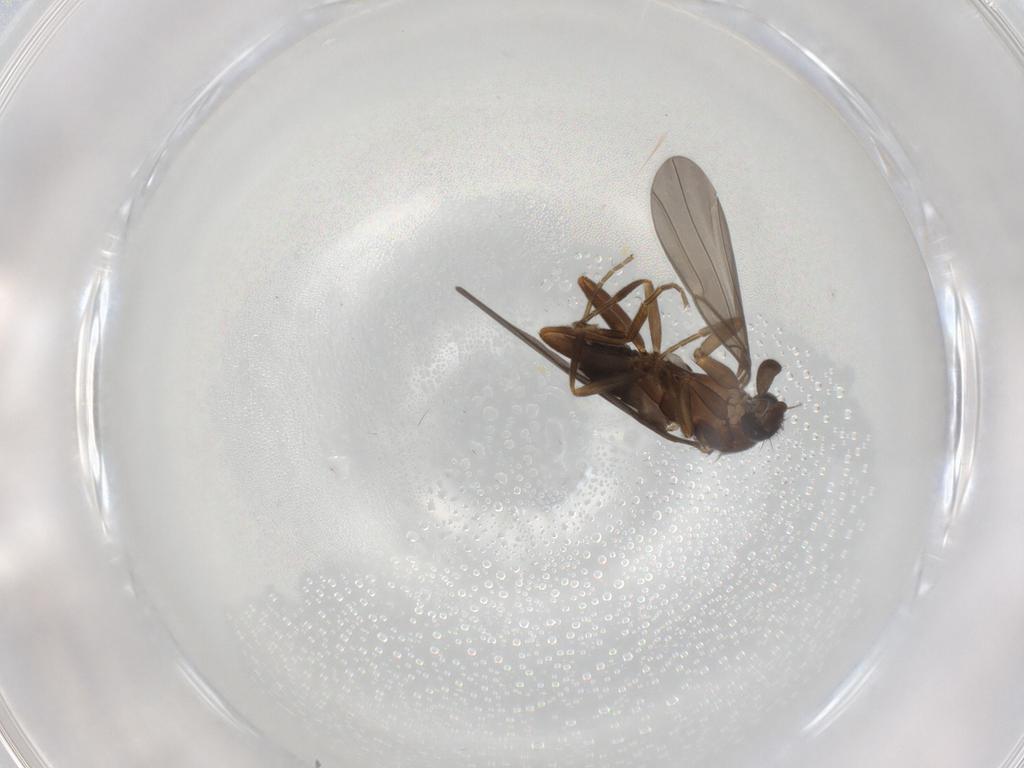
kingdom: Animalia
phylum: Arthropoda
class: Insecta
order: Diptera
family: Chironomidae
